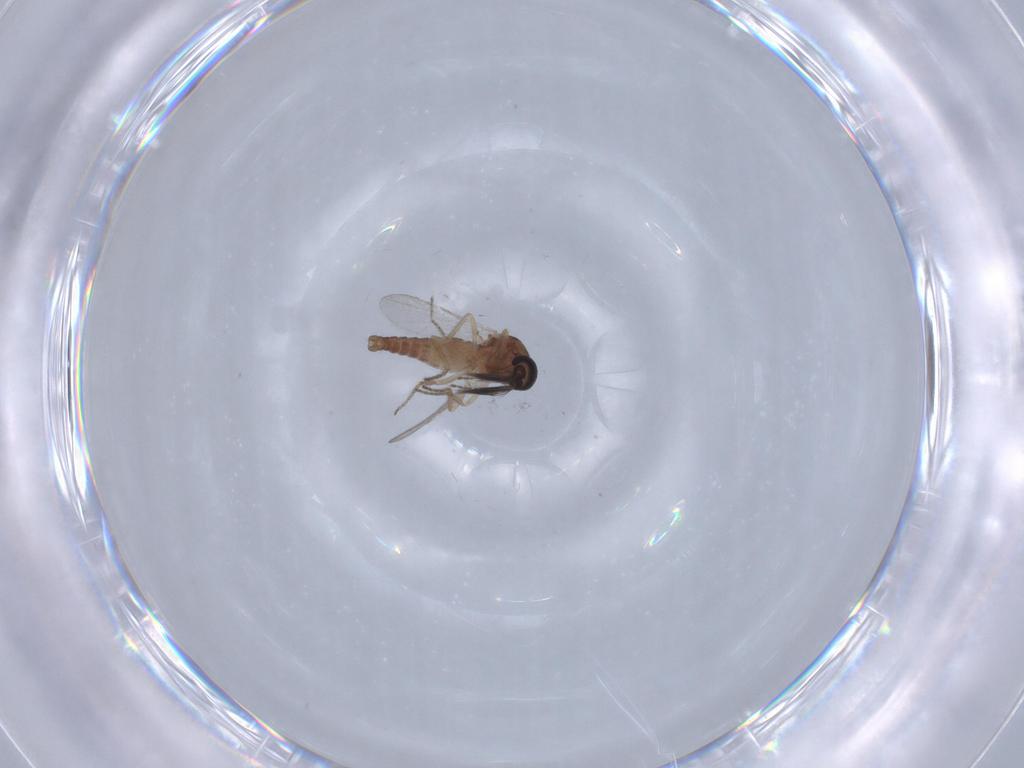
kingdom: Animalia
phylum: Arthropoda
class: Insecta
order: Diptera
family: Ceratopogonidae
